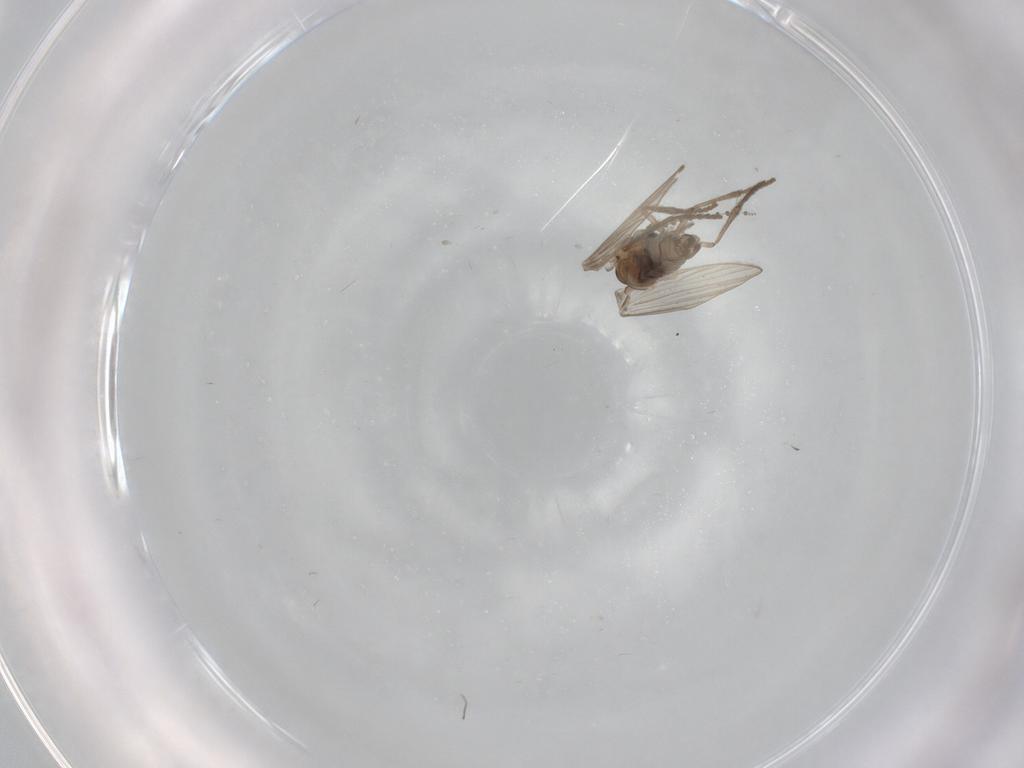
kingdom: Animalia
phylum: Arthropoda
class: Insecta
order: Diptera
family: Psychodidae
